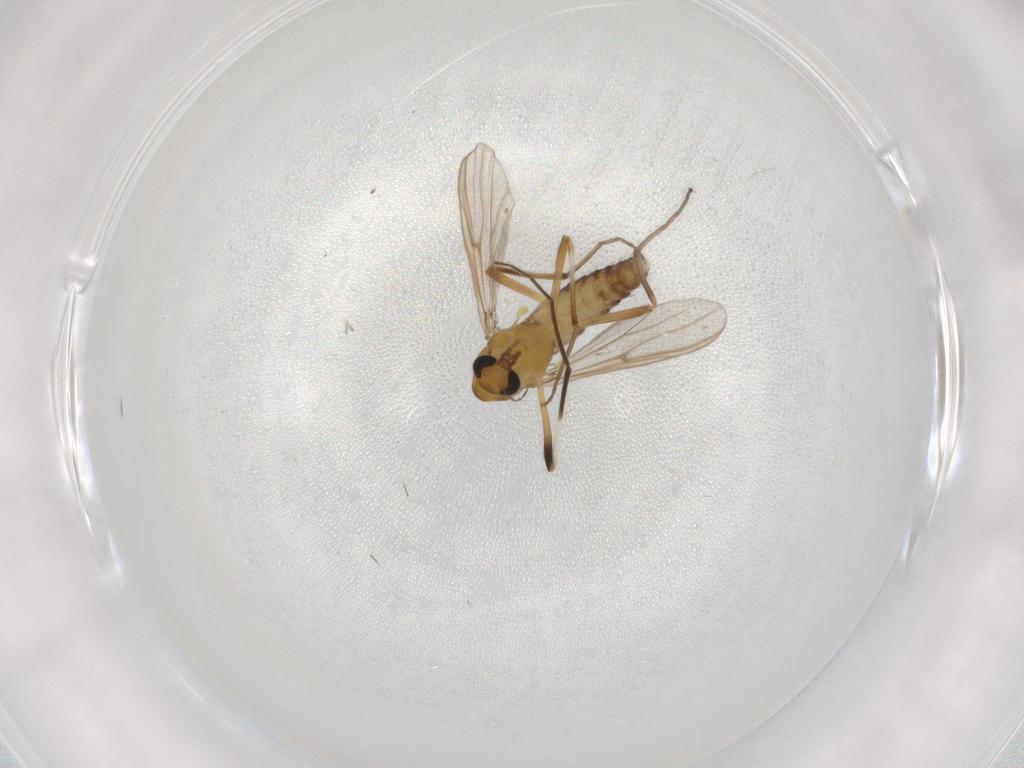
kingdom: Animalia
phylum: Arthropoda
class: Insecta
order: Diptera
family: Chironomidae
